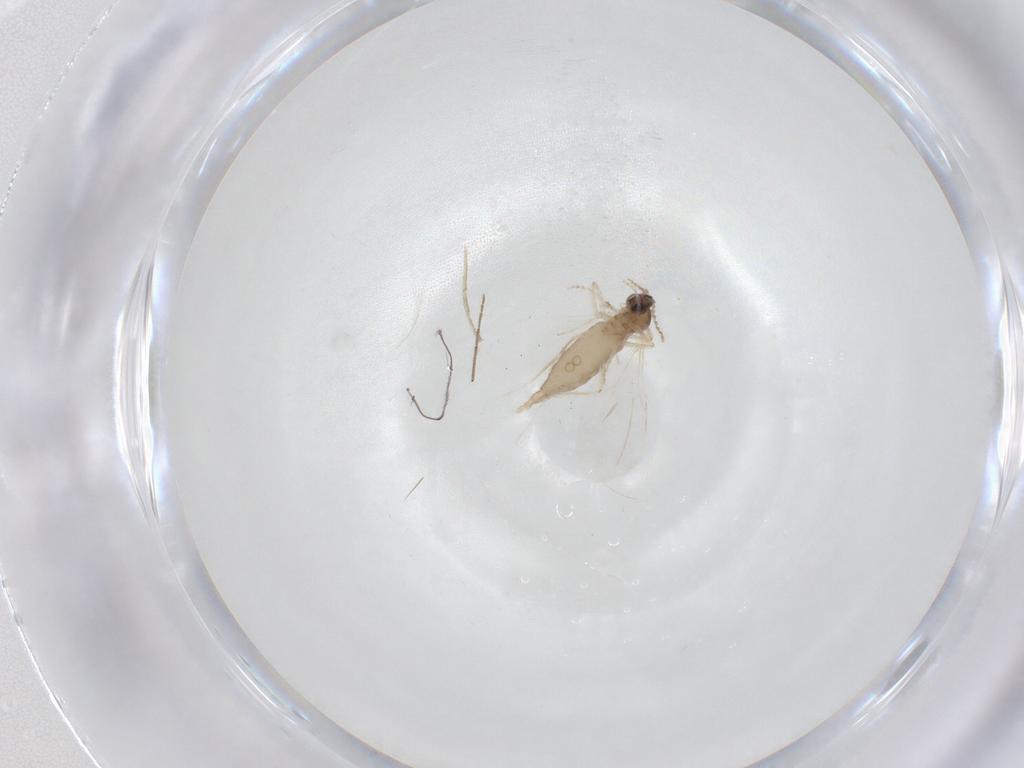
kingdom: Animalia
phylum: Arthropoda
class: Insecta
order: Diptera
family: Cecidomyiidae
